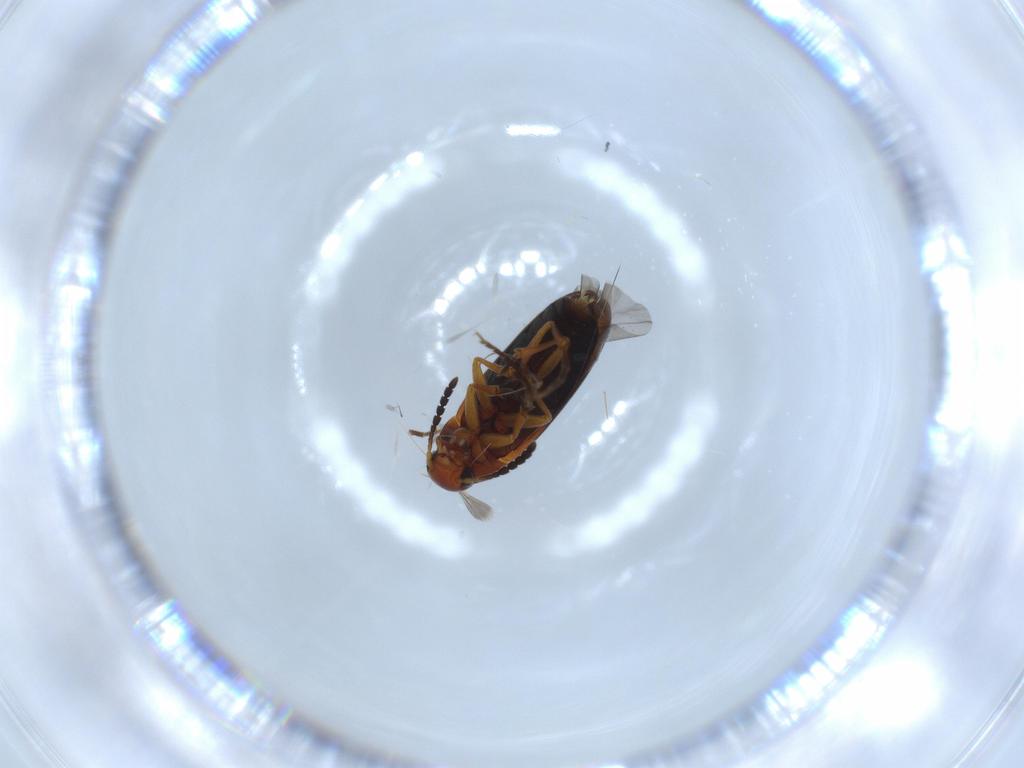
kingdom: Animalia
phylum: Arthropoda
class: Insecta
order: Coleoptera
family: Scraptiidae
